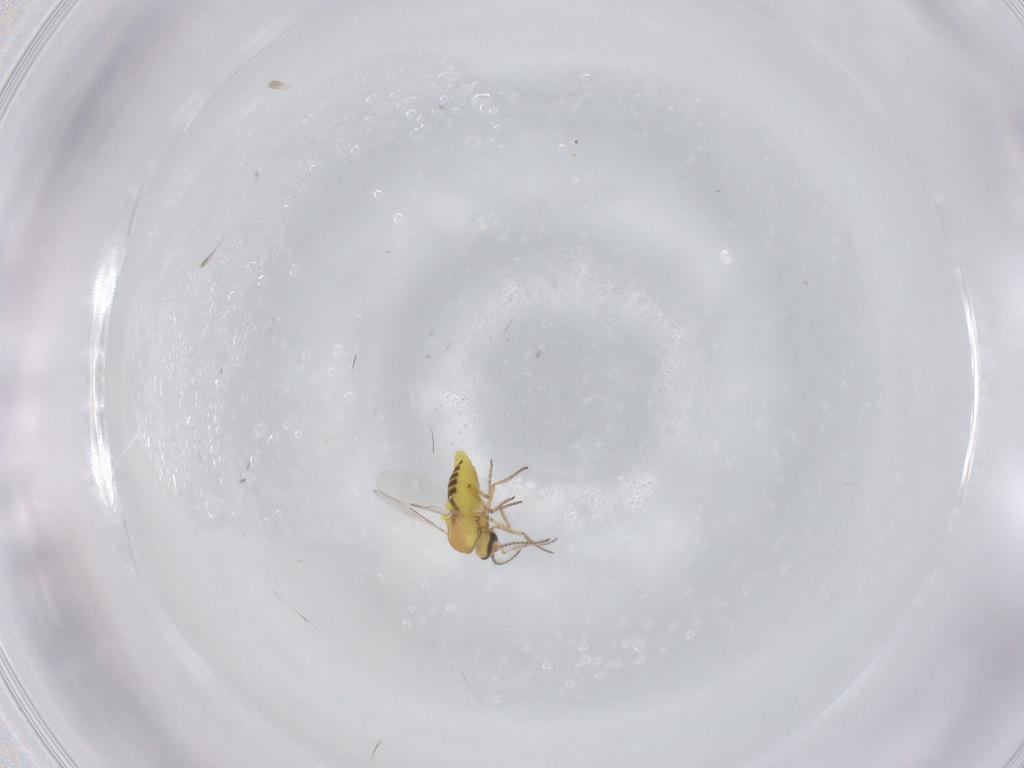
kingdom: Animalia
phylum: Arthropoda
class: Insecta
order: Diptera
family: Ceratopogonidae
